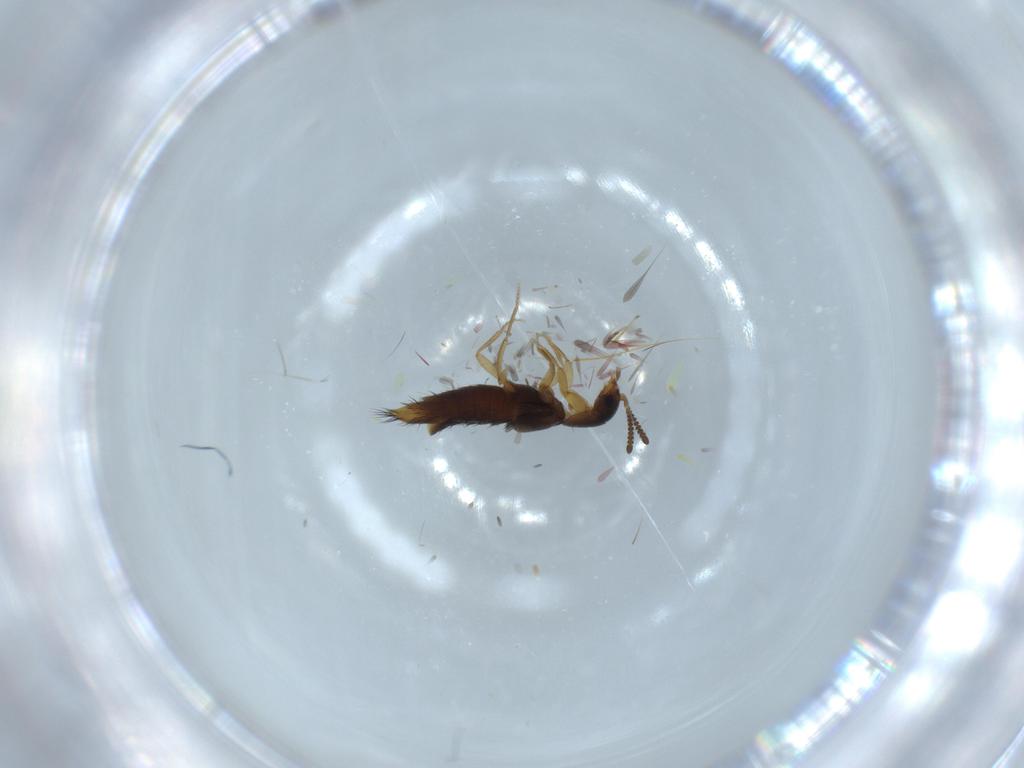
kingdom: Animalia
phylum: Arthropoda
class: Insecta
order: Coleoptera
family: Staphylinidae
